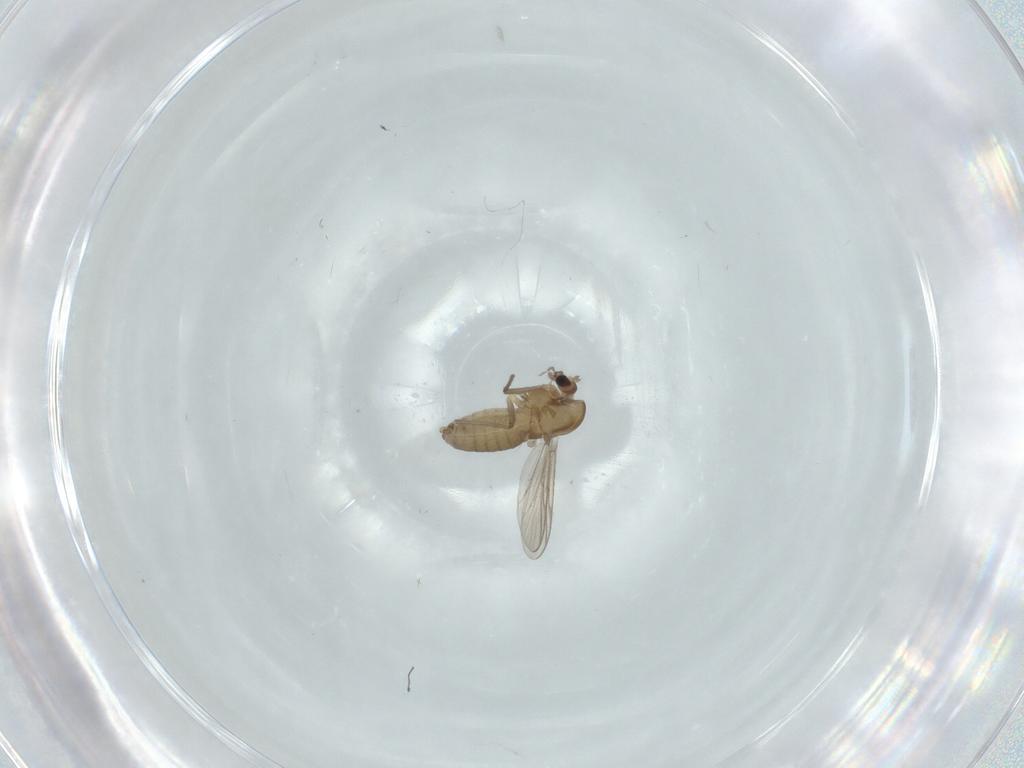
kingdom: Animalia
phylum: Arthropoda
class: Insecta
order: Diptera
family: Chironomidae
